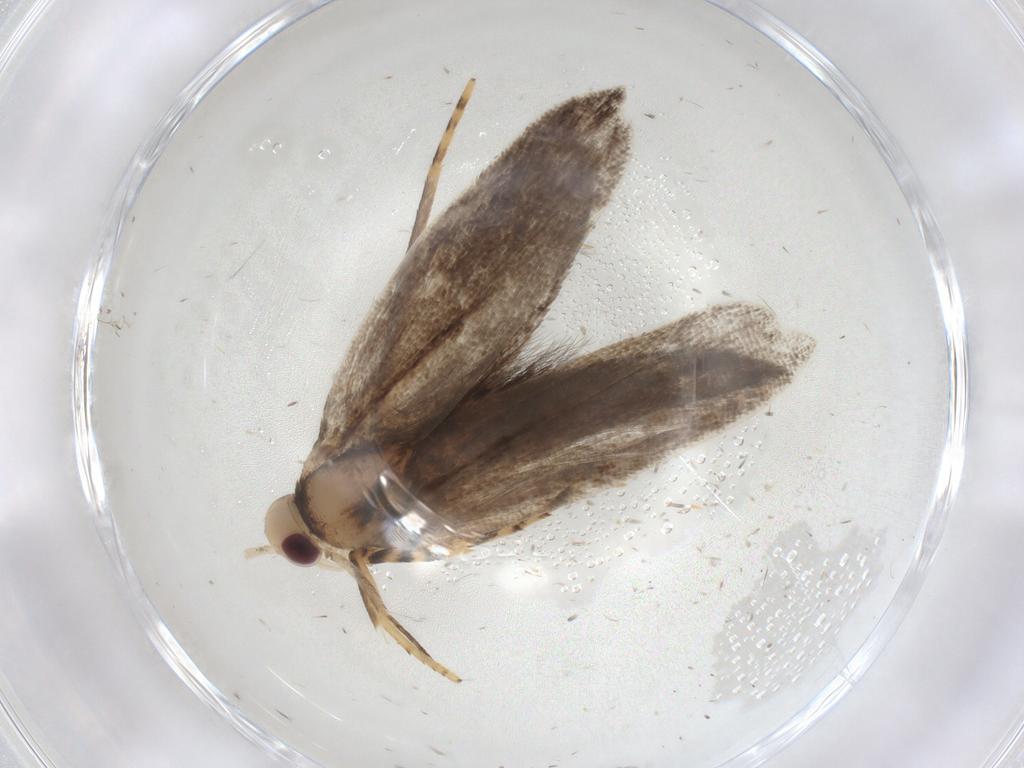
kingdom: Animalia
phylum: Arthropoda
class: Insecta
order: Lepidoptera
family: Gelechiidae
